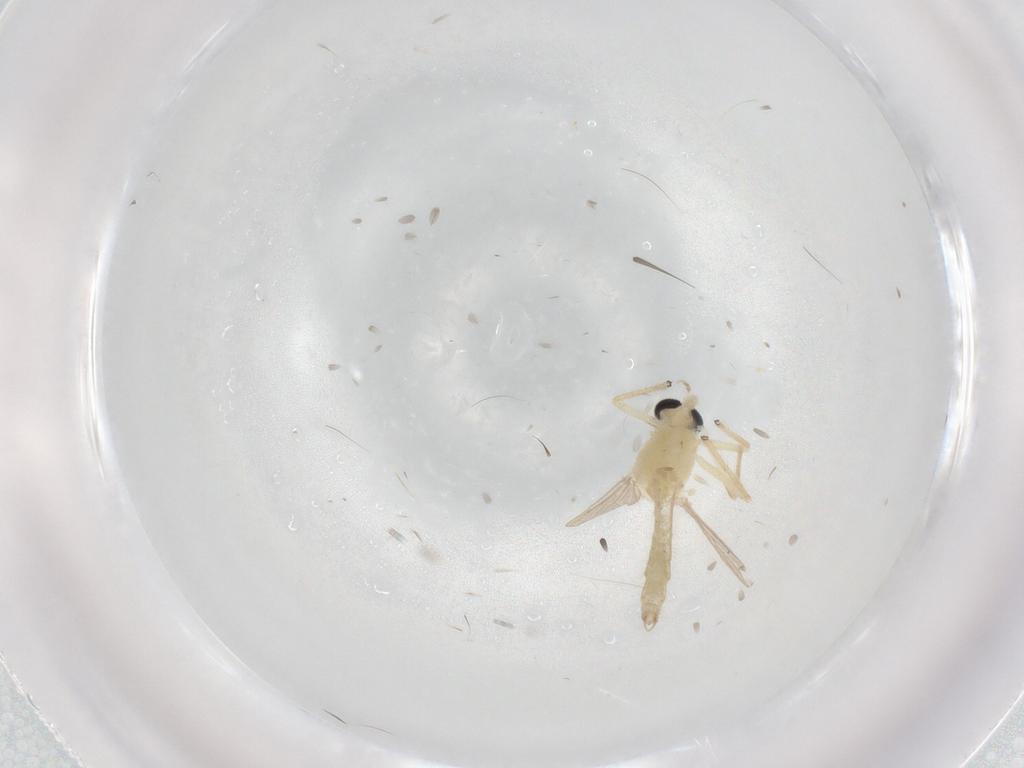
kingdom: Animalia
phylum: Arthropoda
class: Insecta
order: Diptera
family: Chironomidae
